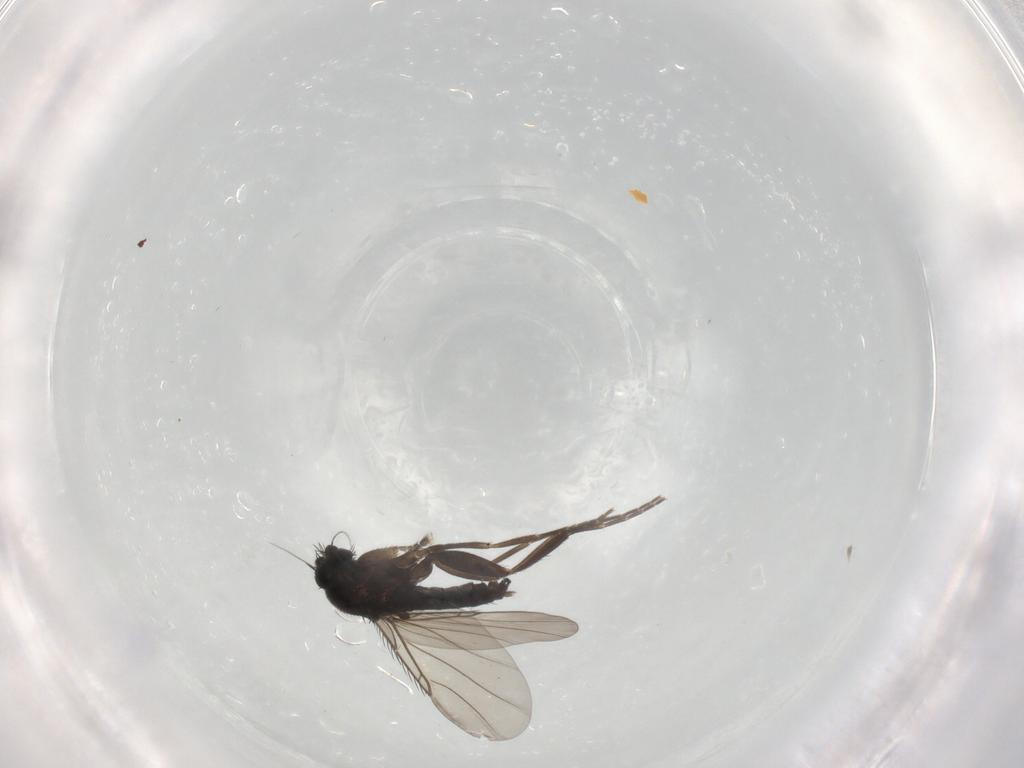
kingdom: Animalia
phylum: Arthropoda
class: Insecta
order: Diptera
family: Phoridae
